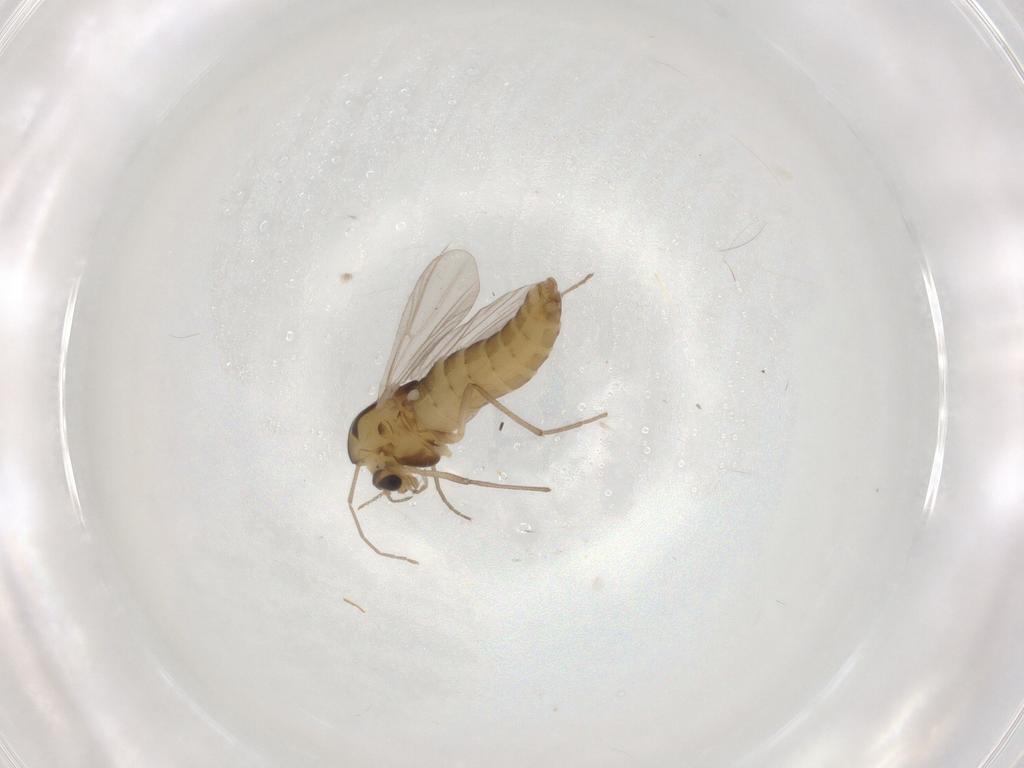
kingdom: Animalia
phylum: Arthropoda
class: Insecta
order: Diptera
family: Chironomidae
